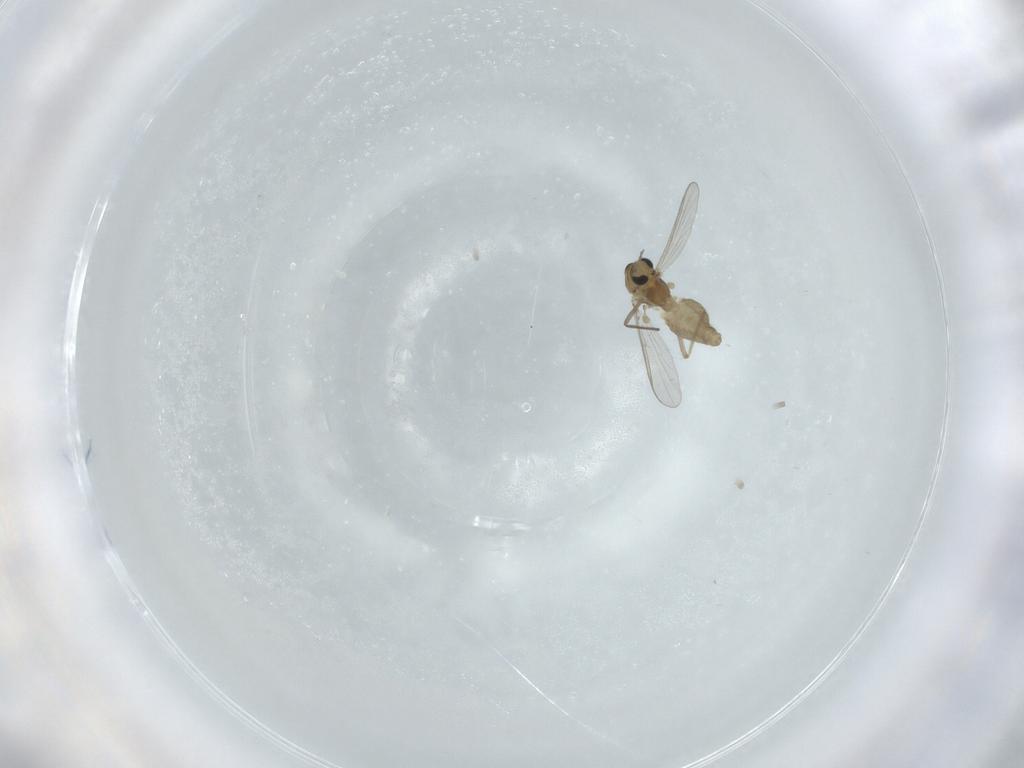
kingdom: Animalia
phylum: Arthropoda
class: Insecta
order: Diptera
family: Chironomidae
